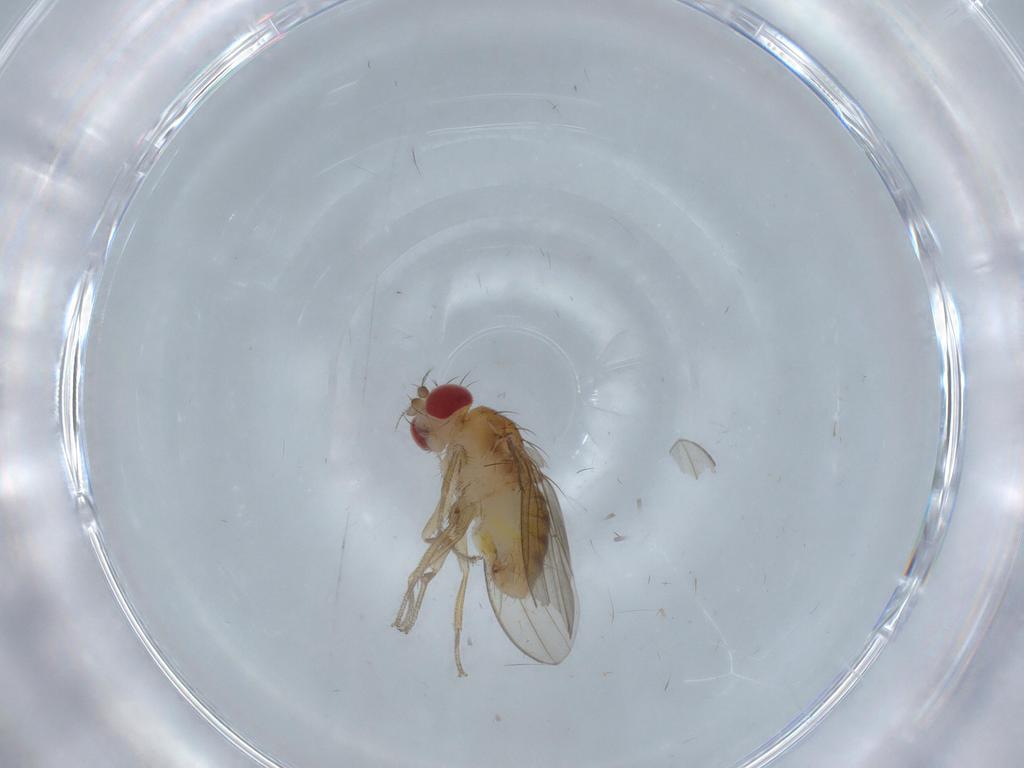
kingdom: Animalia
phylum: Arthropoda
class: Insecta
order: Diptera
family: Drosophilidae
